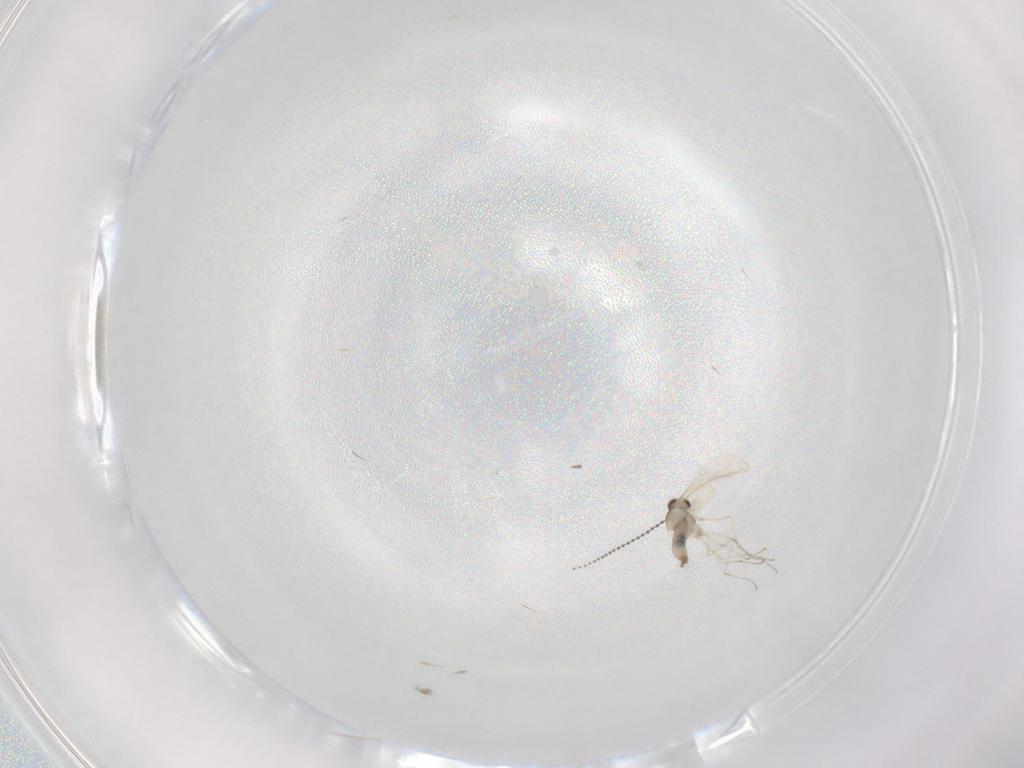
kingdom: Animalia
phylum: Arthropoda
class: Insecta
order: Diptera
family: Cecidomyiidae
